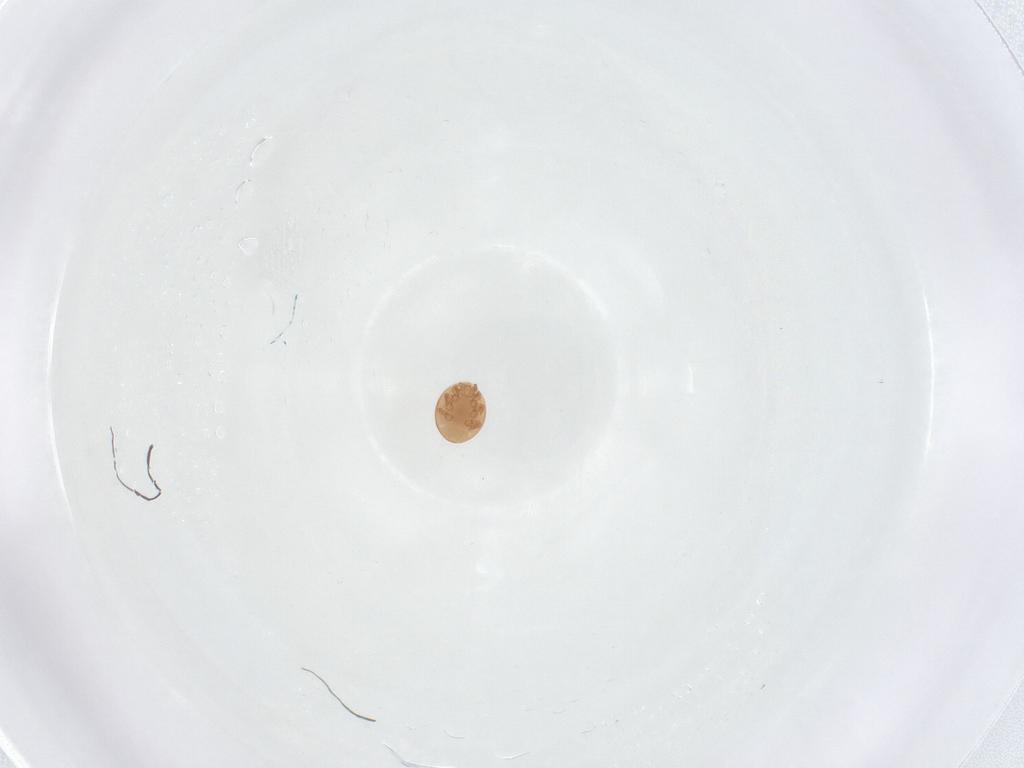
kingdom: Animalia
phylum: Arthropoda
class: Arachnida
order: Mesostigmata
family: Trematuridae
